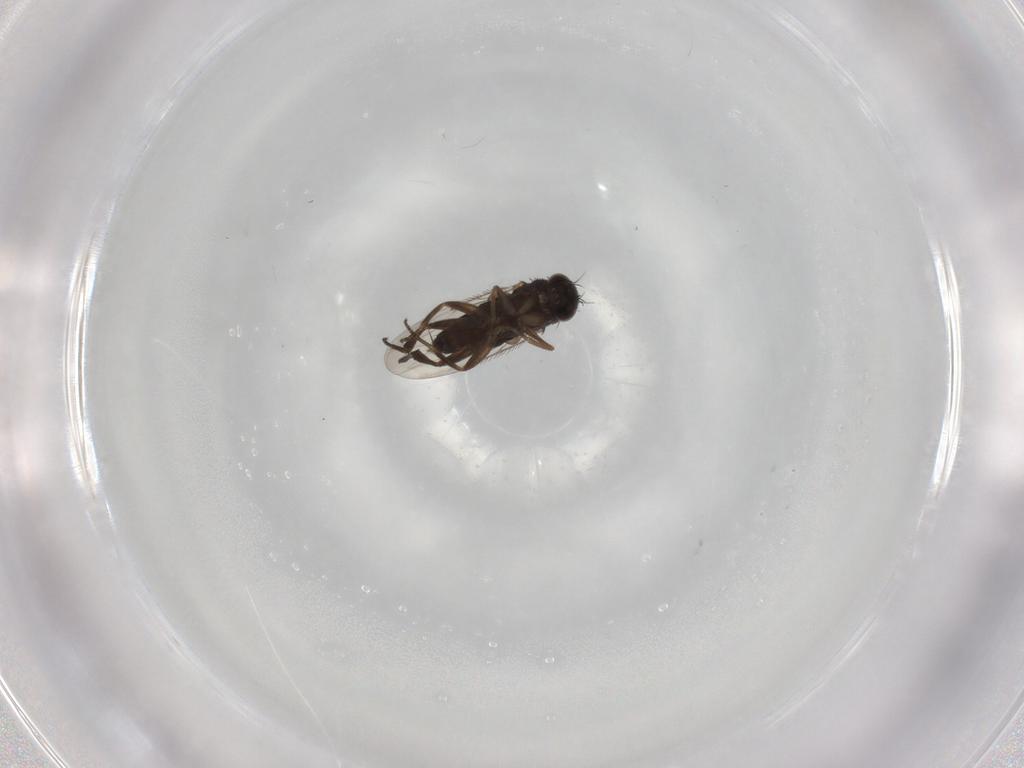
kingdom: Animalia
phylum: Arthropoda
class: Insecta
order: Diptera
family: Phoridae
